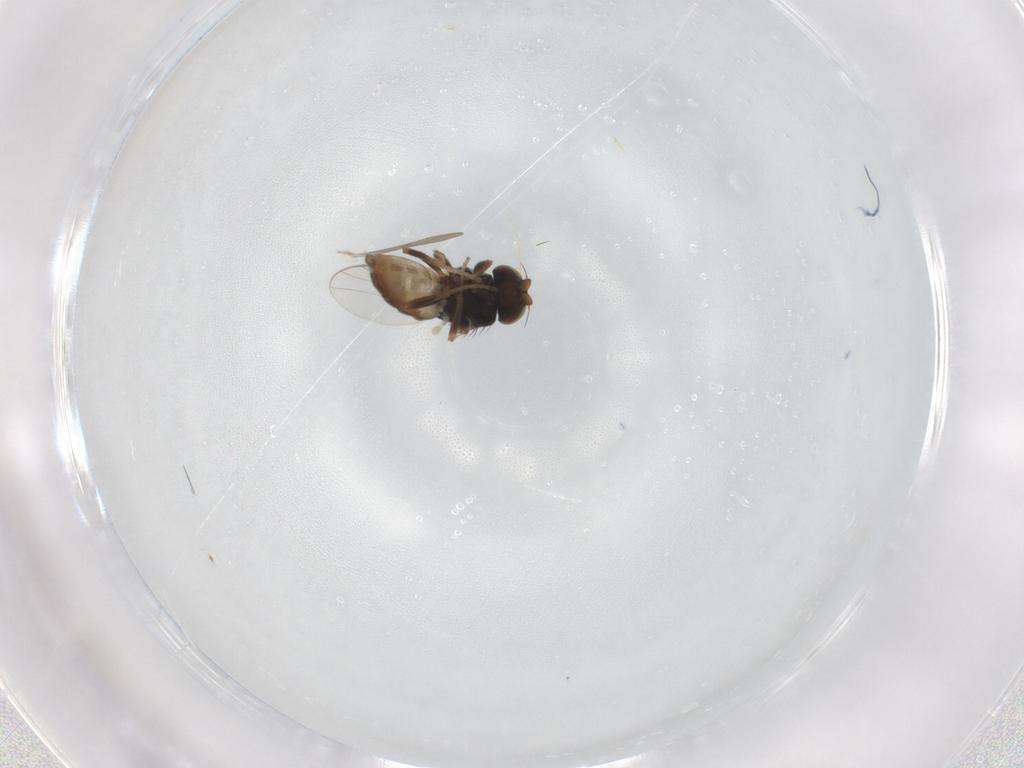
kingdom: Animalia
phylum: Arthropoda
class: Insecta
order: Diptera
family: Chloropidae
